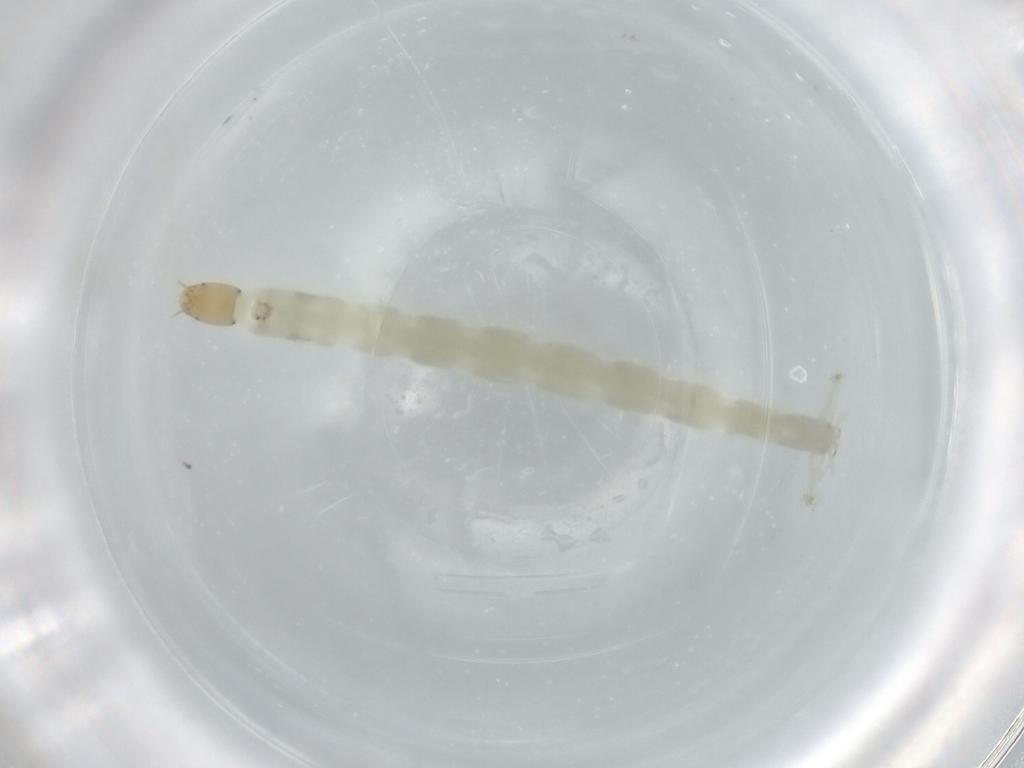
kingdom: Animalia
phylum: Arthropoda
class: Insecta
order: Diptera
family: Chironomidae
